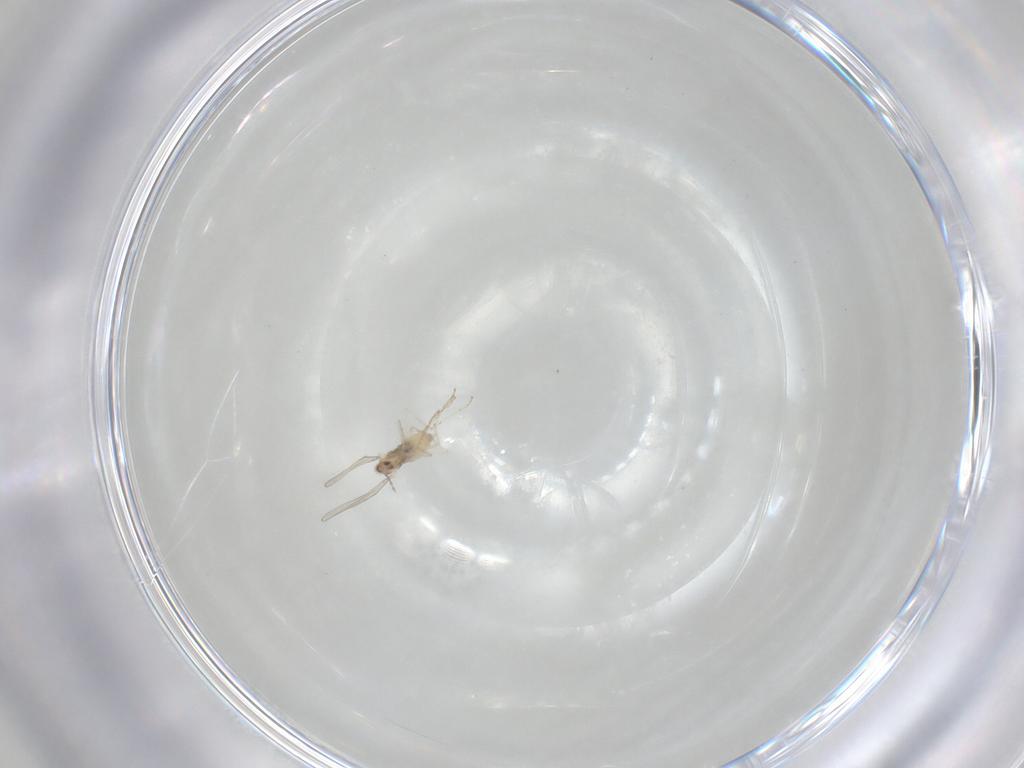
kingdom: Animalia
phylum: Arthropoda
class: Insecta
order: Diptera
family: Cecidomyiidae
